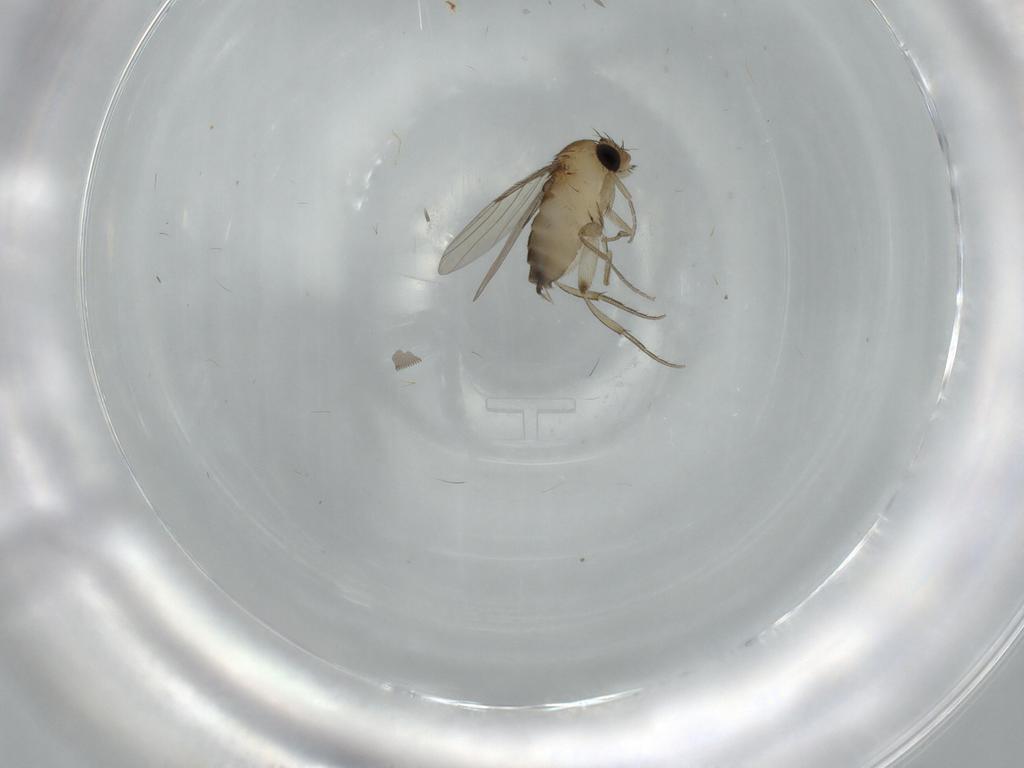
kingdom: Animalia
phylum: Arthropoda
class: Insecta
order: Diptera
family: Phoridae
